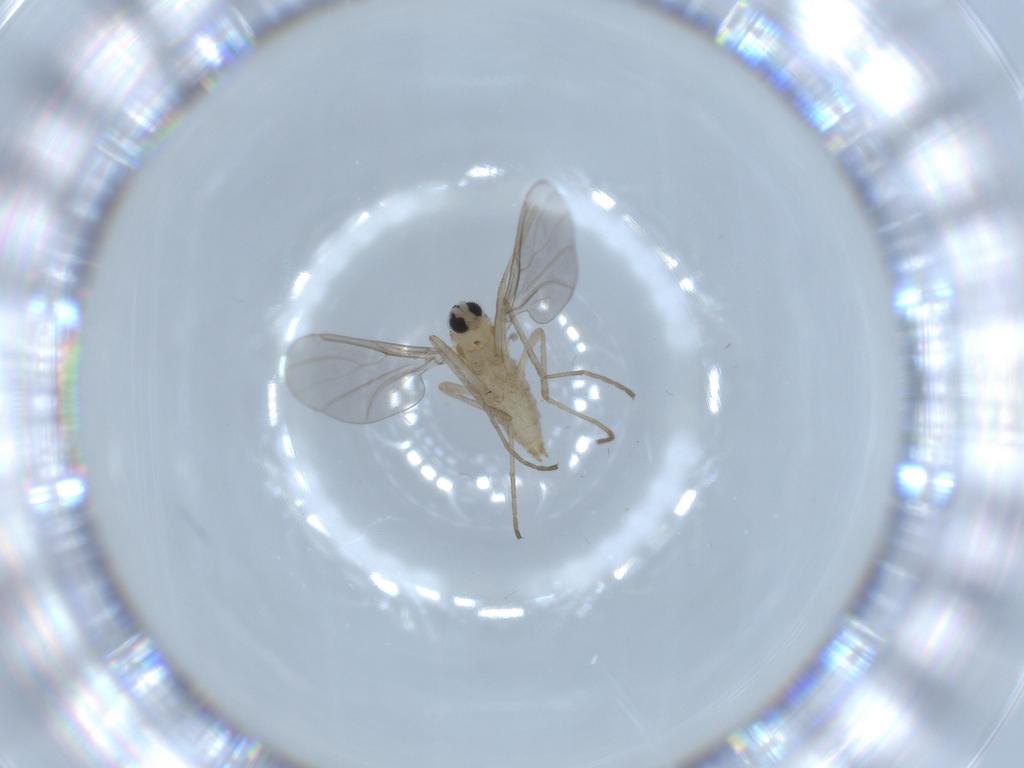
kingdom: Animalia
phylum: Arthropoda
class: Insecta
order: Diptera
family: Cecidomyiidae
